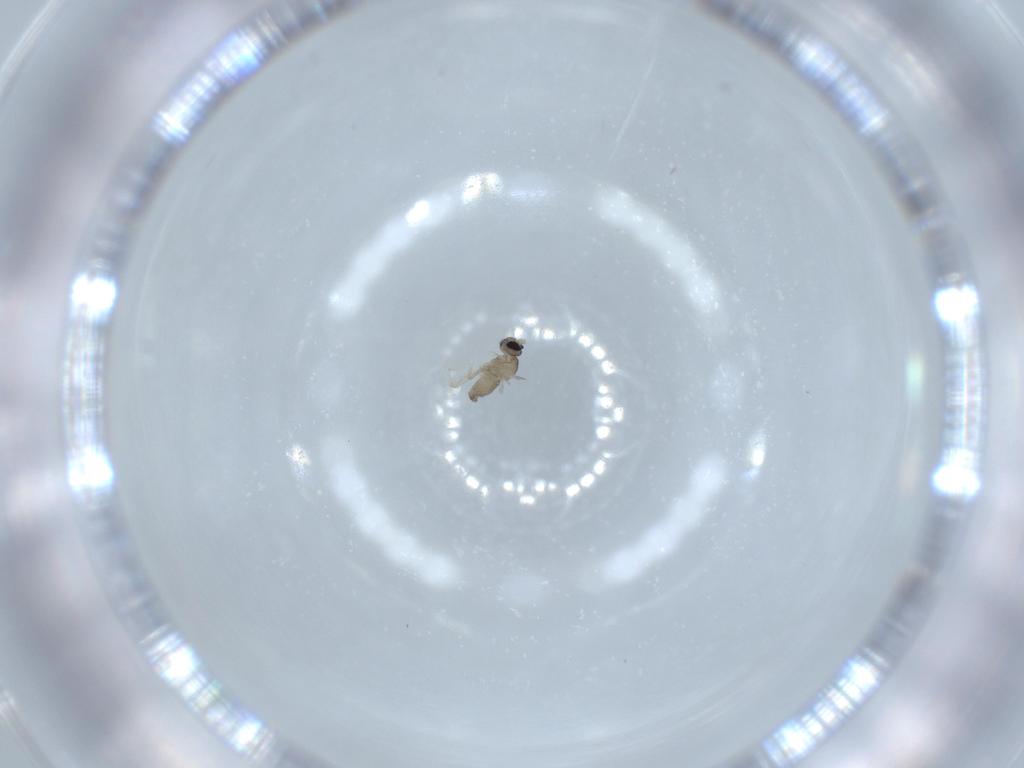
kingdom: Animalia
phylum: Arthropoda
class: Insecta
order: Diptera
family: Cecidomyiidae
